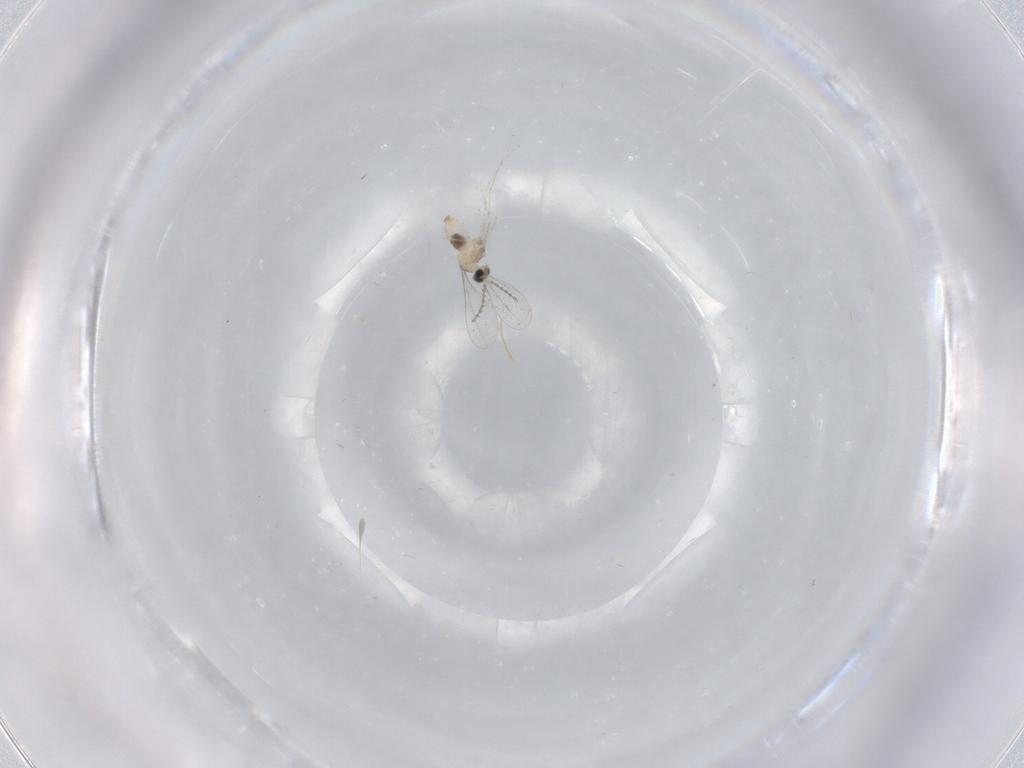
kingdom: Animalia
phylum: Arthropoda
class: Insecta
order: Diptera
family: Cecidomyiidae
